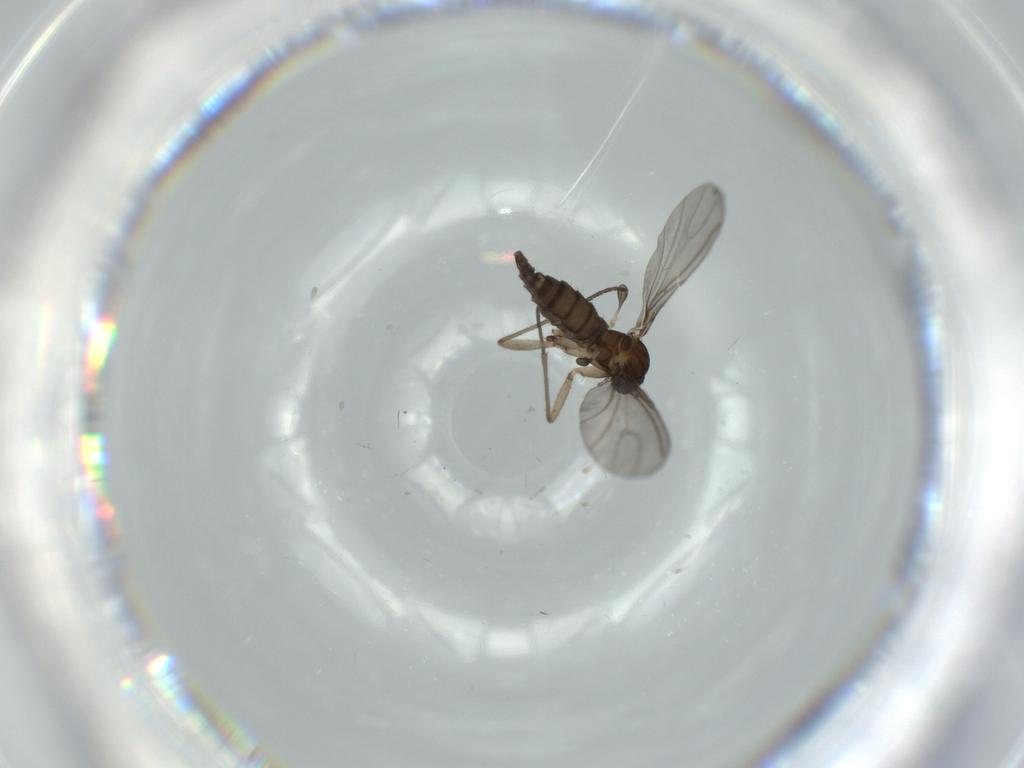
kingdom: Animalia
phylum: Arthropoda
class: Insecta
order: Diptera
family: Sciaridae
